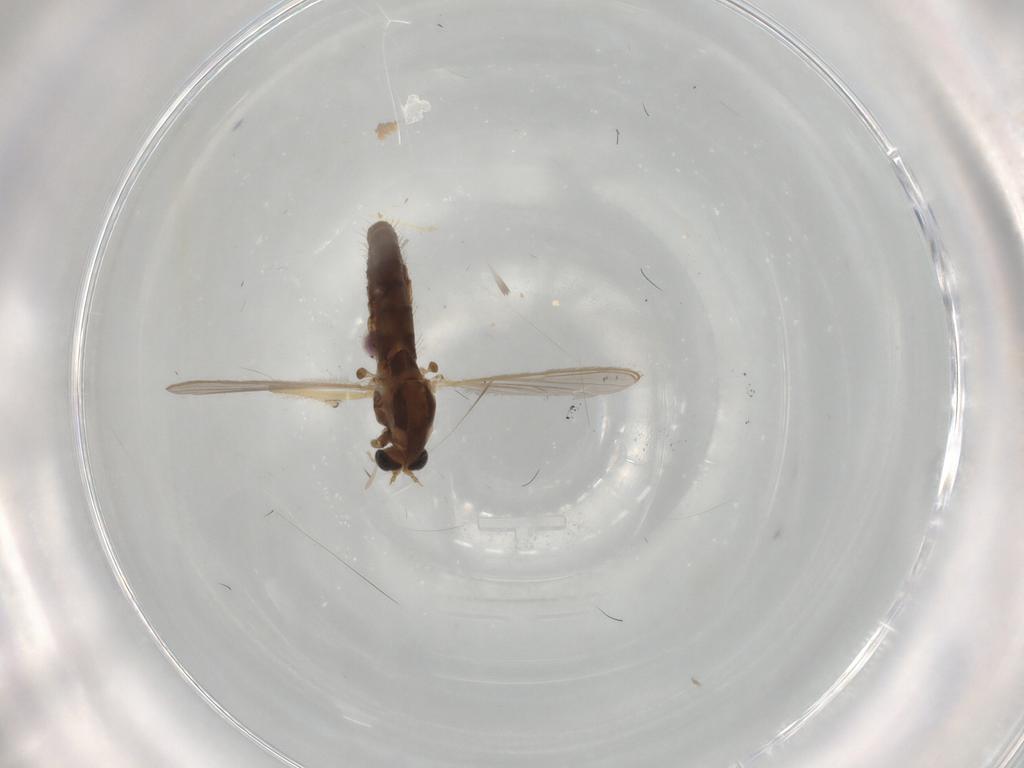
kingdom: Animalia
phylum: Arthropoda
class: Insecta
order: Diptera
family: Chironomidae
